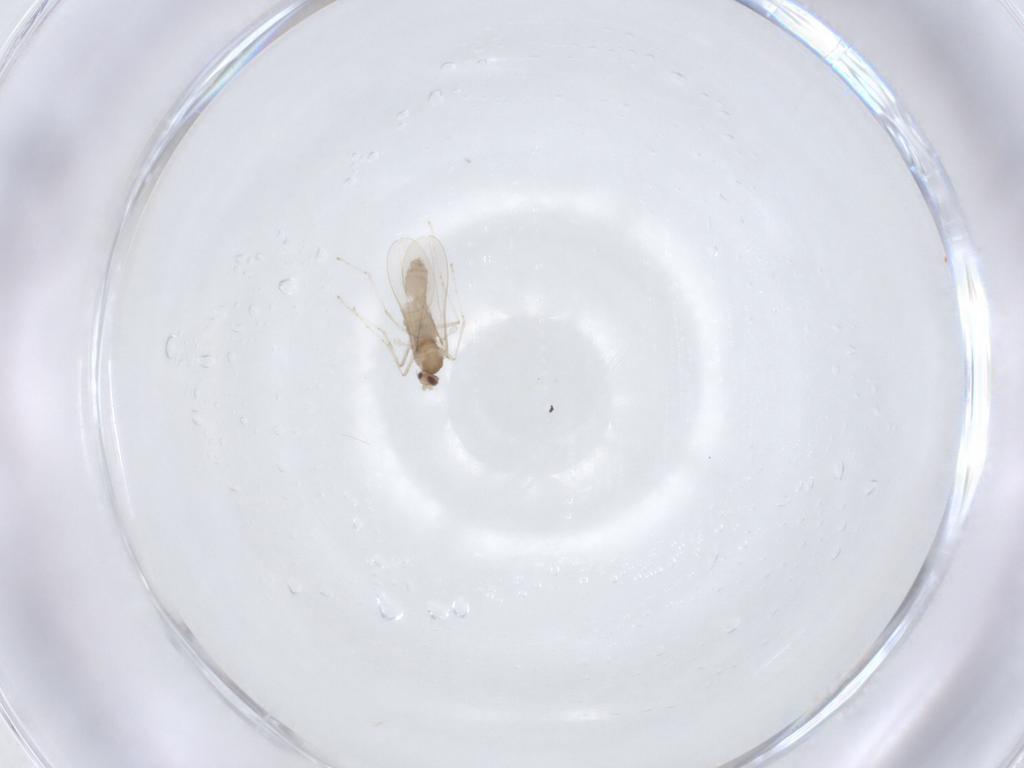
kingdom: Animalia
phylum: Arthropoda
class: Insecta
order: Diptera
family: Cecidomyiidae
